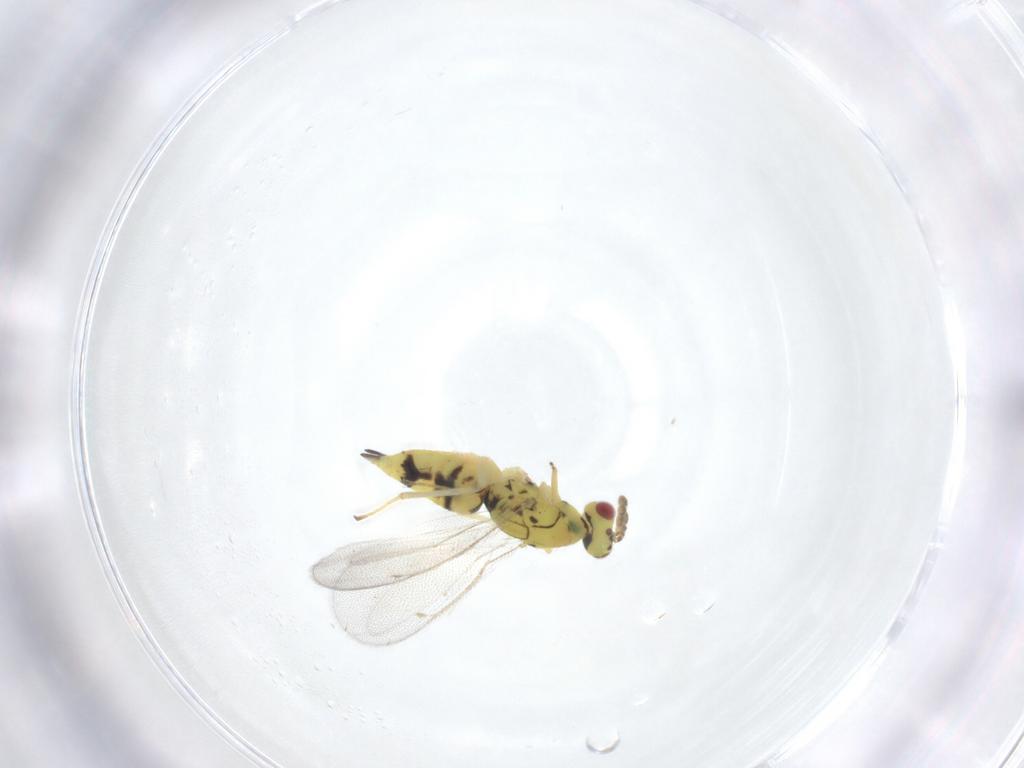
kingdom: Animalia
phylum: Arthropoda
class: Insecta
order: Hymenoptera
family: Eulophidae
